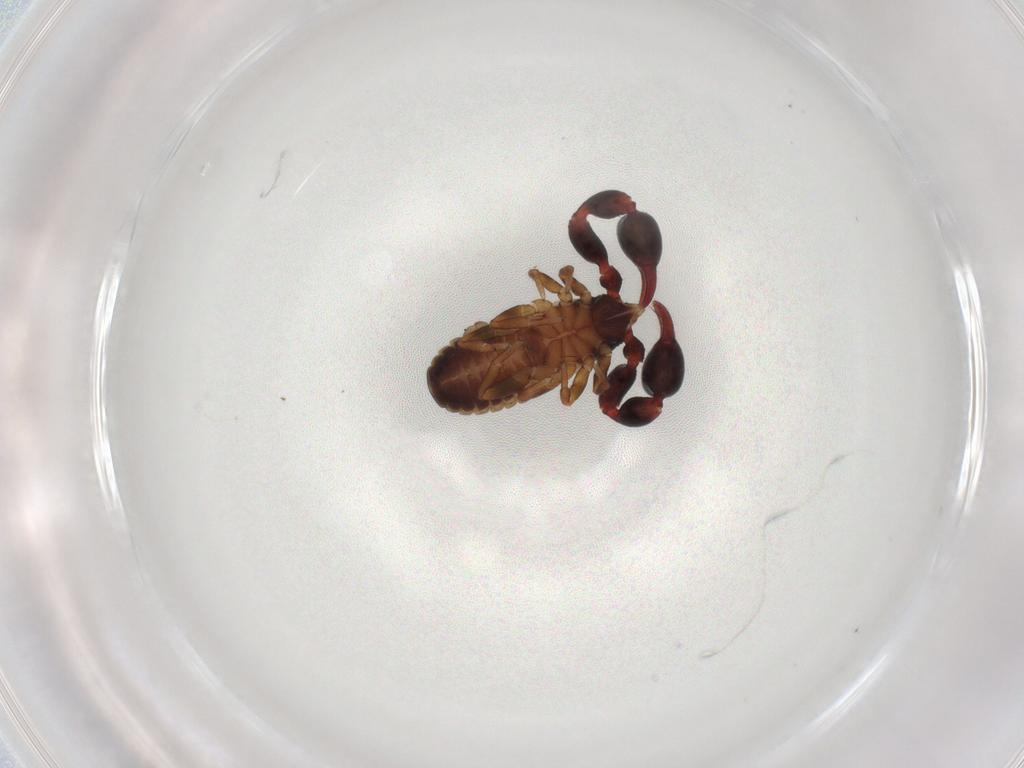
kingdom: Animalia
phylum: Arthropoda
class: Arachnida
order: Pseudoscorpiones
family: Chernetidae
